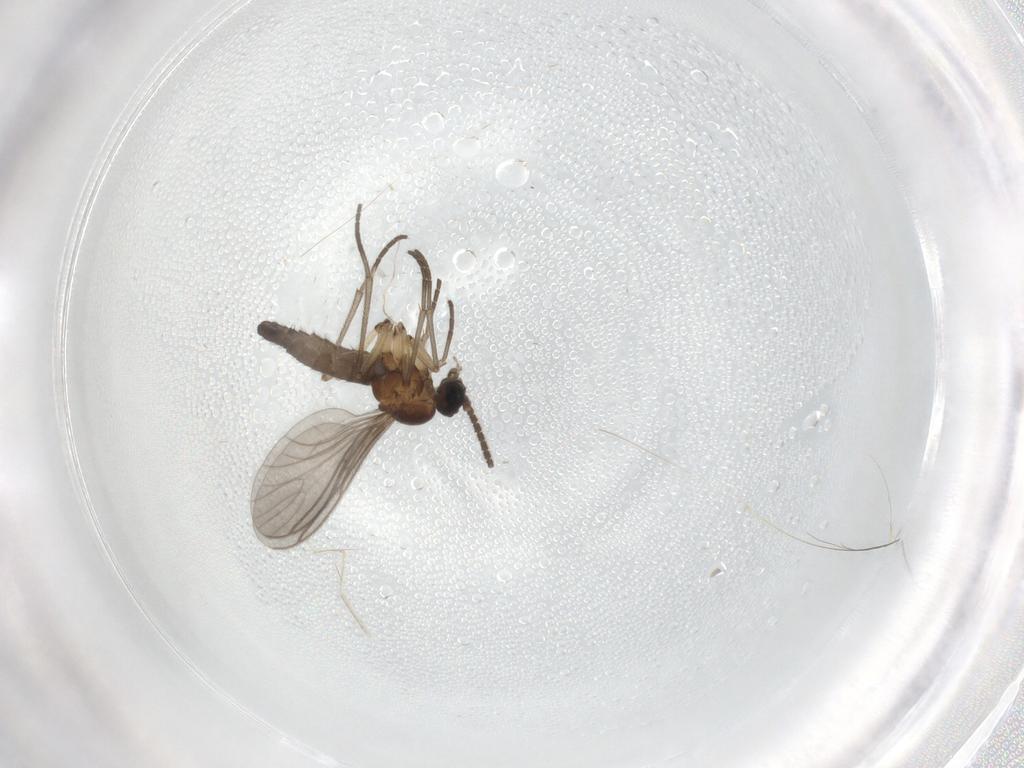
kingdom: Animalia
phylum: Arthropoda
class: Insecta
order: Diptera
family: Sciaridae
